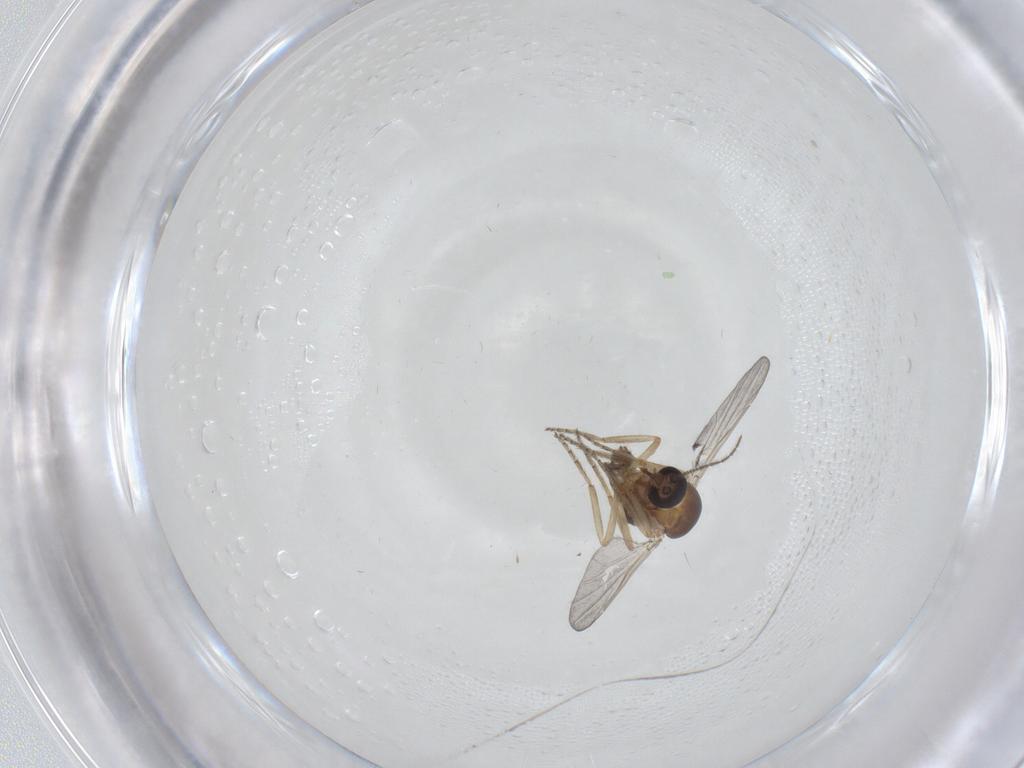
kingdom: Animalia
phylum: Arthropoda
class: Insecta
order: Diptera
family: Ceratopogonidae
